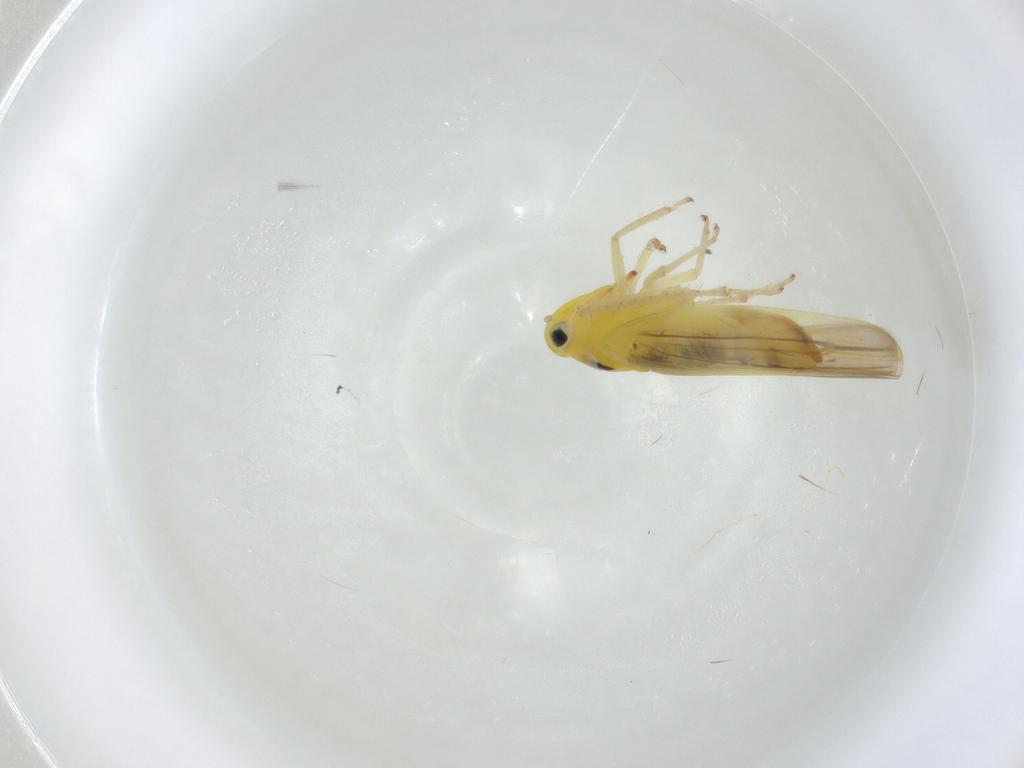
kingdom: Animalia
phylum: Arthropoda
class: Insecta
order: Hemiptera
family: Cicadellidae
